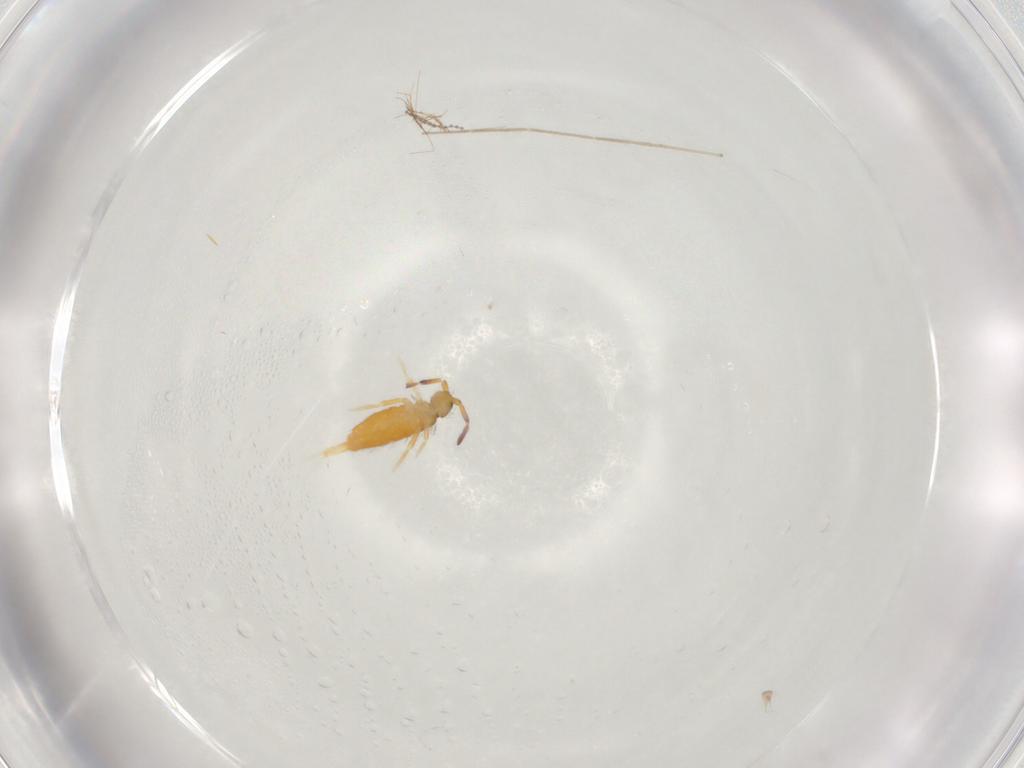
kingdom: Animalia
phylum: Arthropoda
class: Collembola
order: Entomobryomorpha
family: Entomobryidae
